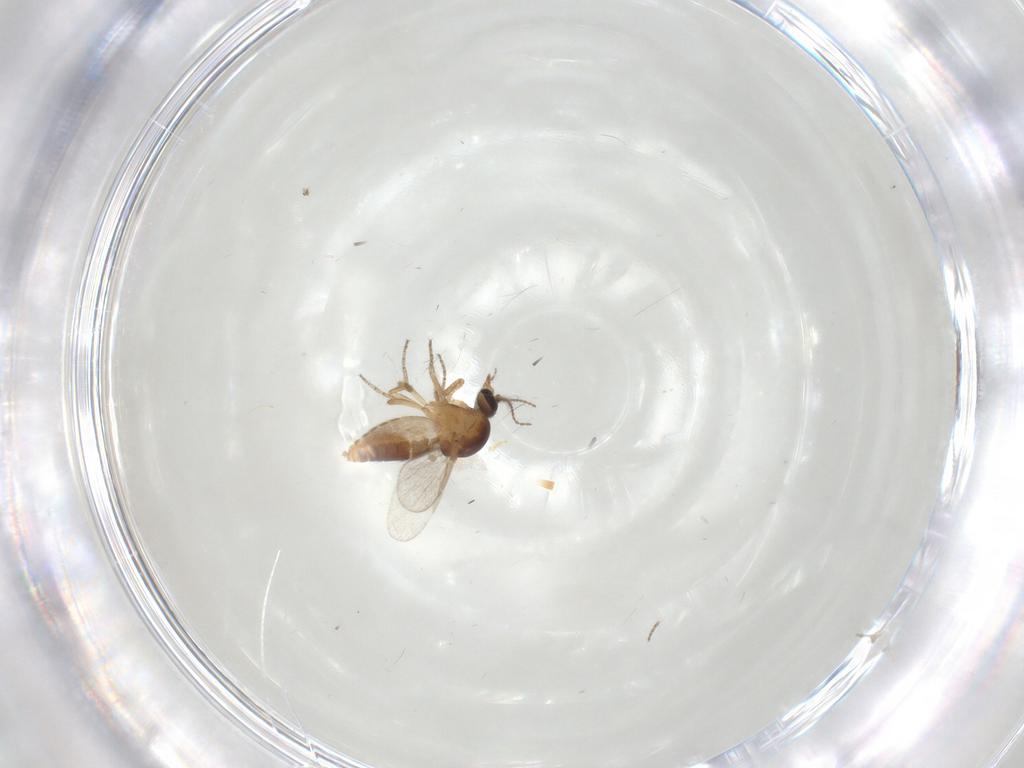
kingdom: Animalia
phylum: Arthropoda
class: Insecta
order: Diptera
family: Ceratopogonidae
